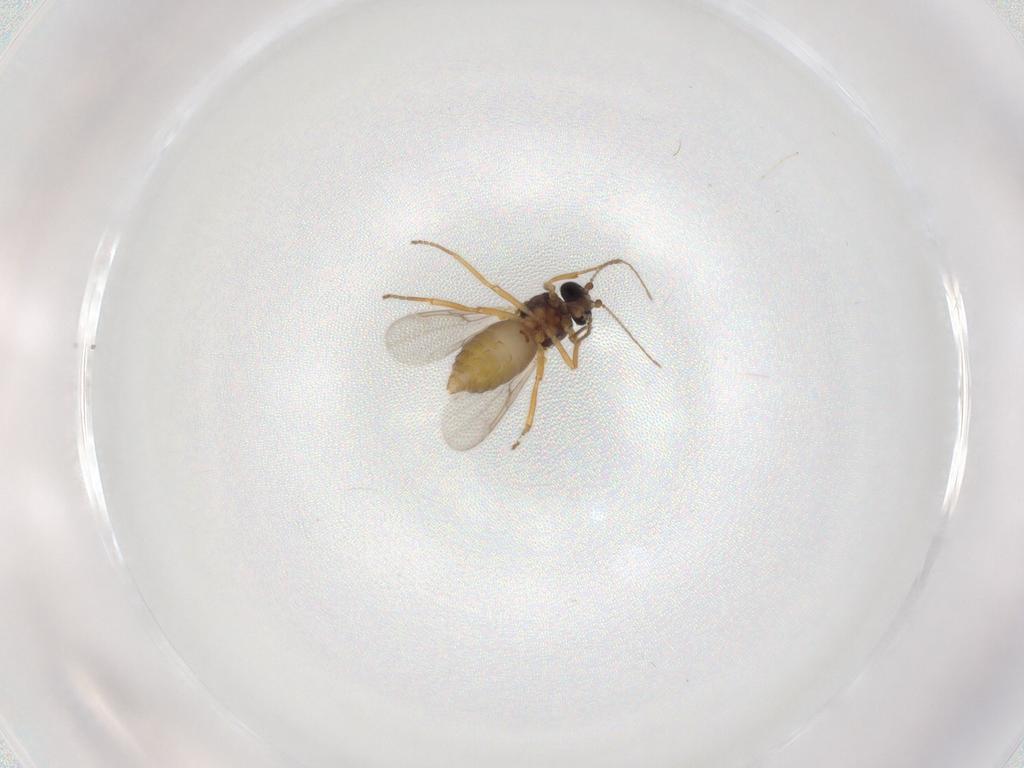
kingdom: Animalia
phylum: Arthropoda
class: Insecta
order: Diptera
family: Ceratopogonidae
